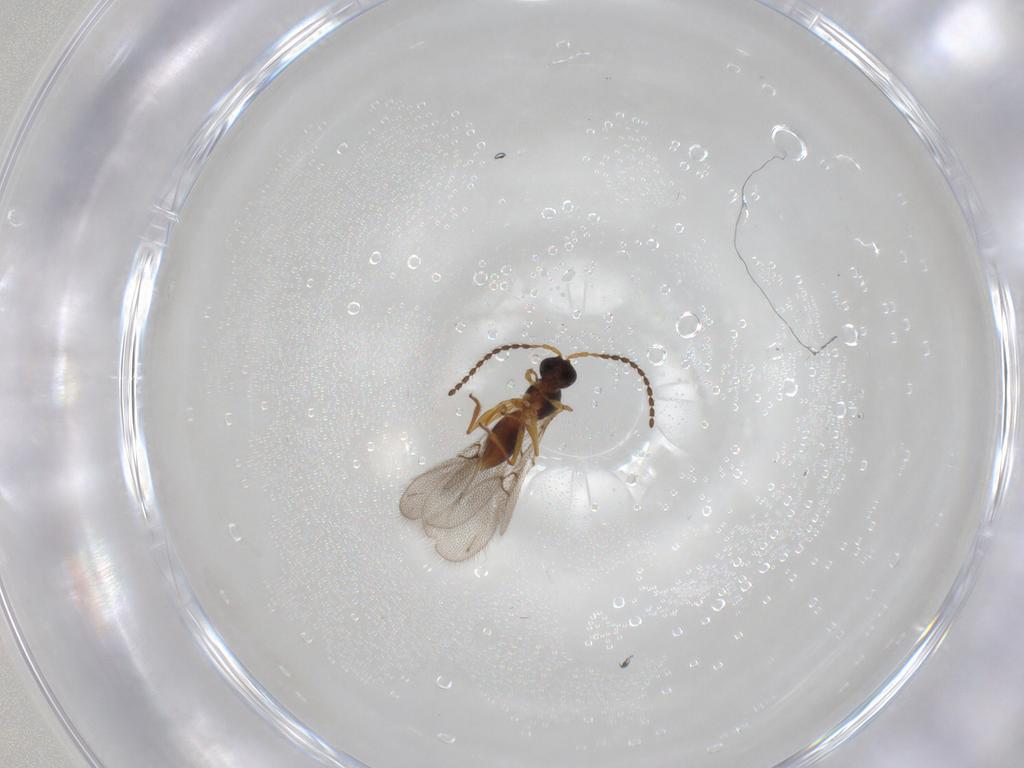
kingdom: Animalia
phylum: Arthropoda
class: Insecta
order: Hymenoptera
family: Figitidae
